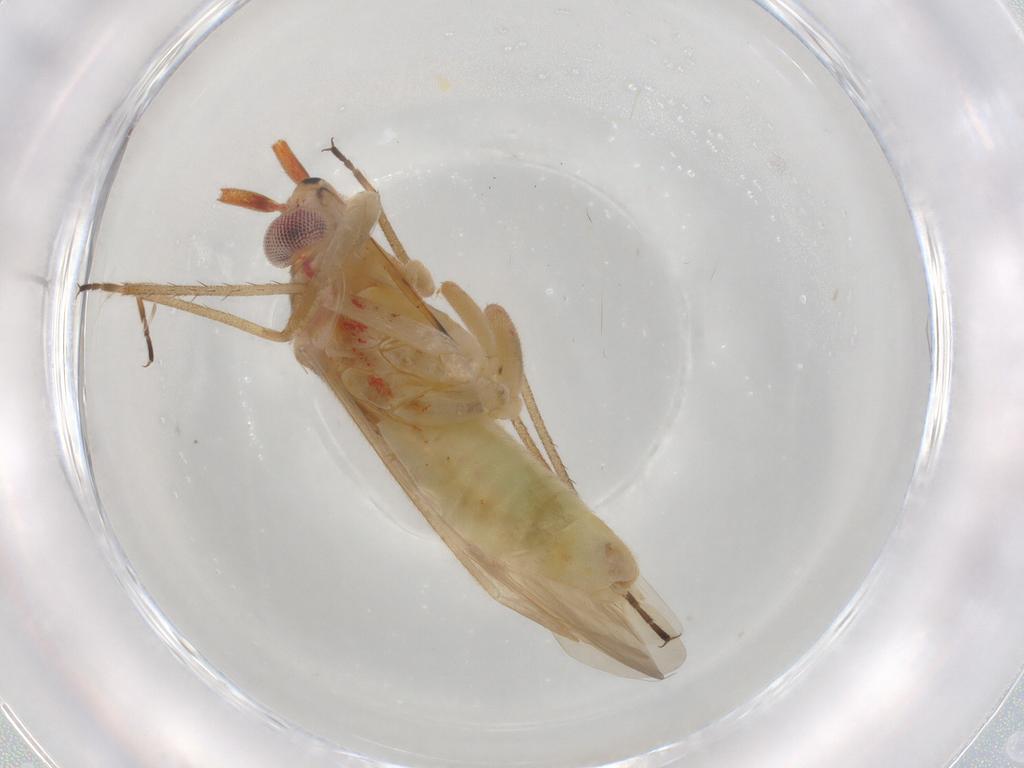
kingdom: Animalia
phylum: Arthropoda
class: Insecta
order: Hemiptera
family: Miridae
